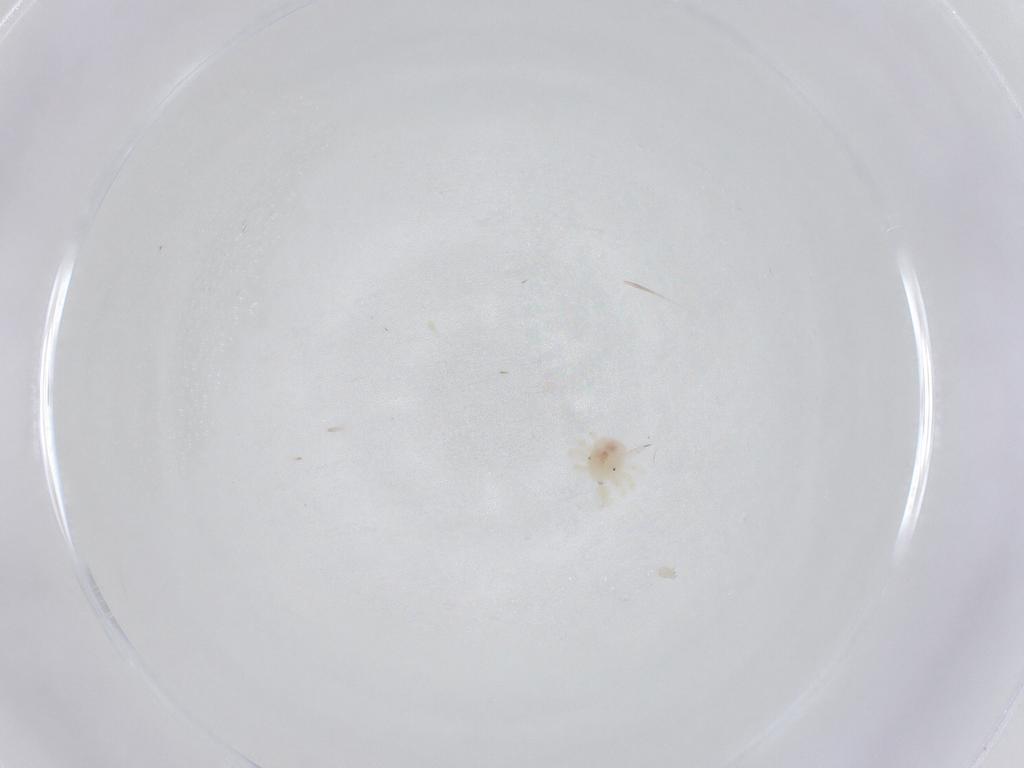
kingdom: Animalia
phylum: Arthropoda
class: Arachnida
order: Trombidiformes
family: Anystidae
